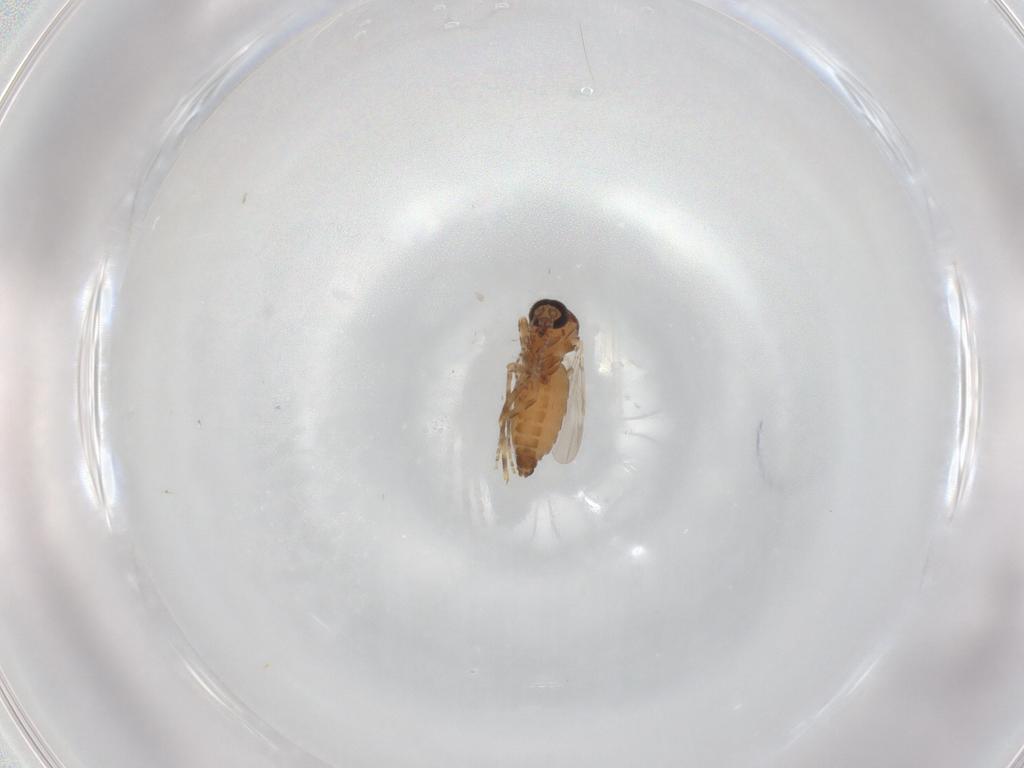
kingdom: Animalia
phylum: Arthropoda
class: Insecta
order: Diptera
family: Ceratopogonidae
